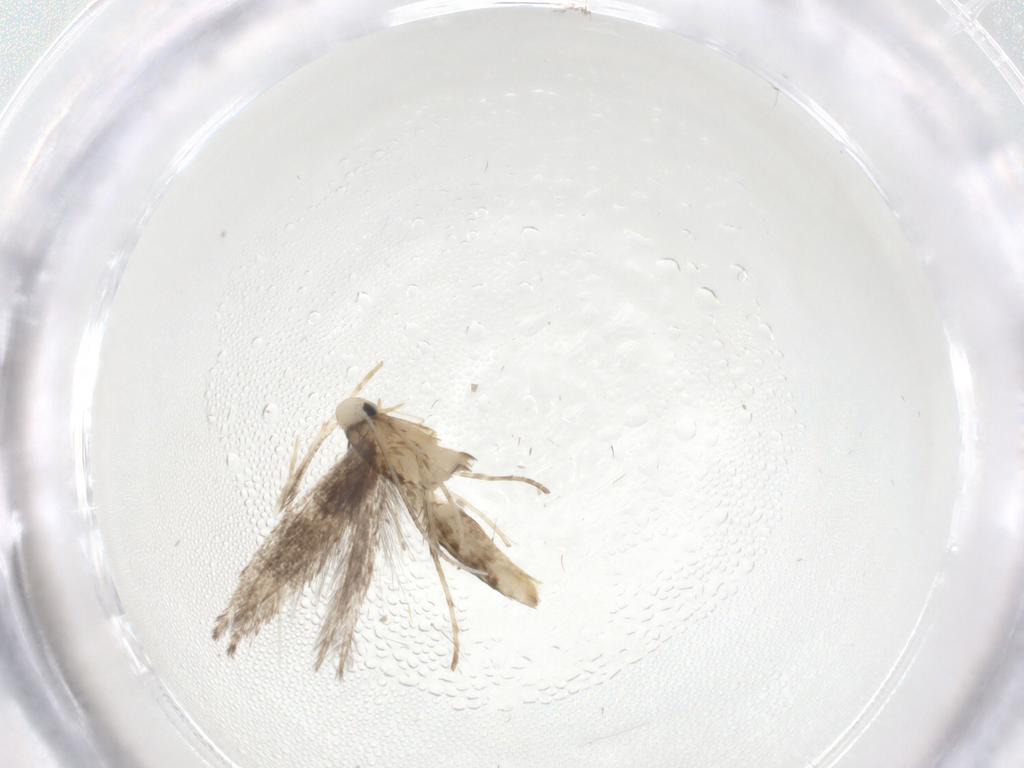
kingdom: Animalia
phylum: Arthropoda
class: Insecta
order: Lepidoptera
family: Gracillariidae
